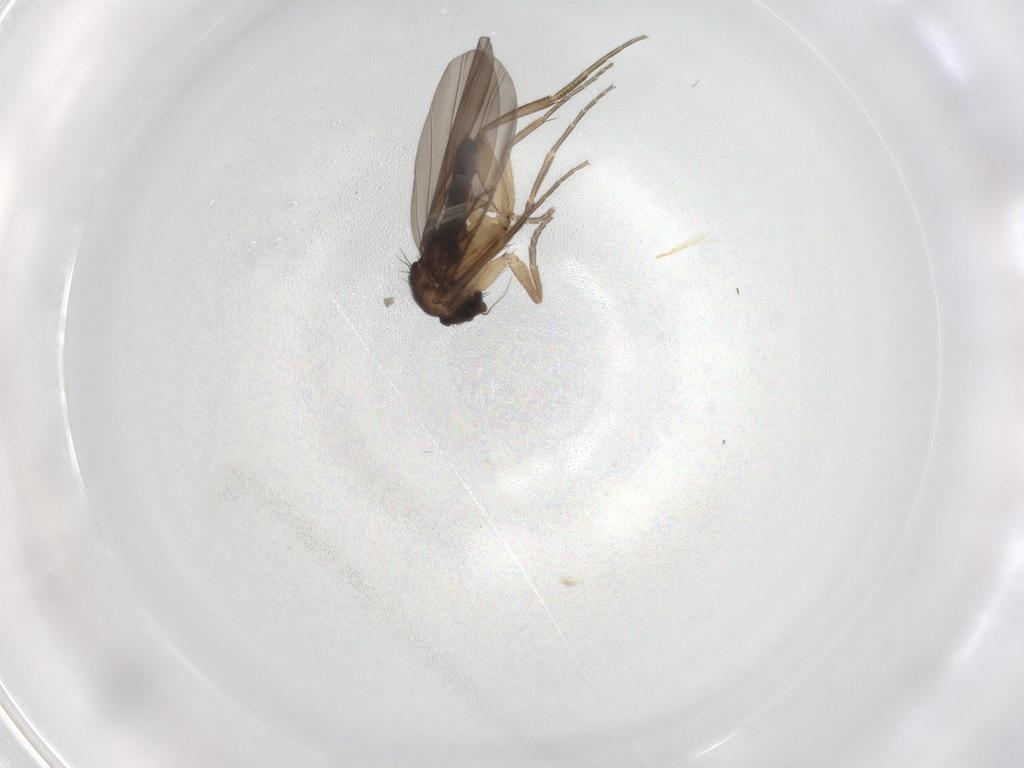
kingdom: Animalia
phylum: Arthropoda
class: Insecta
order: Diptera
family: Phoridae
